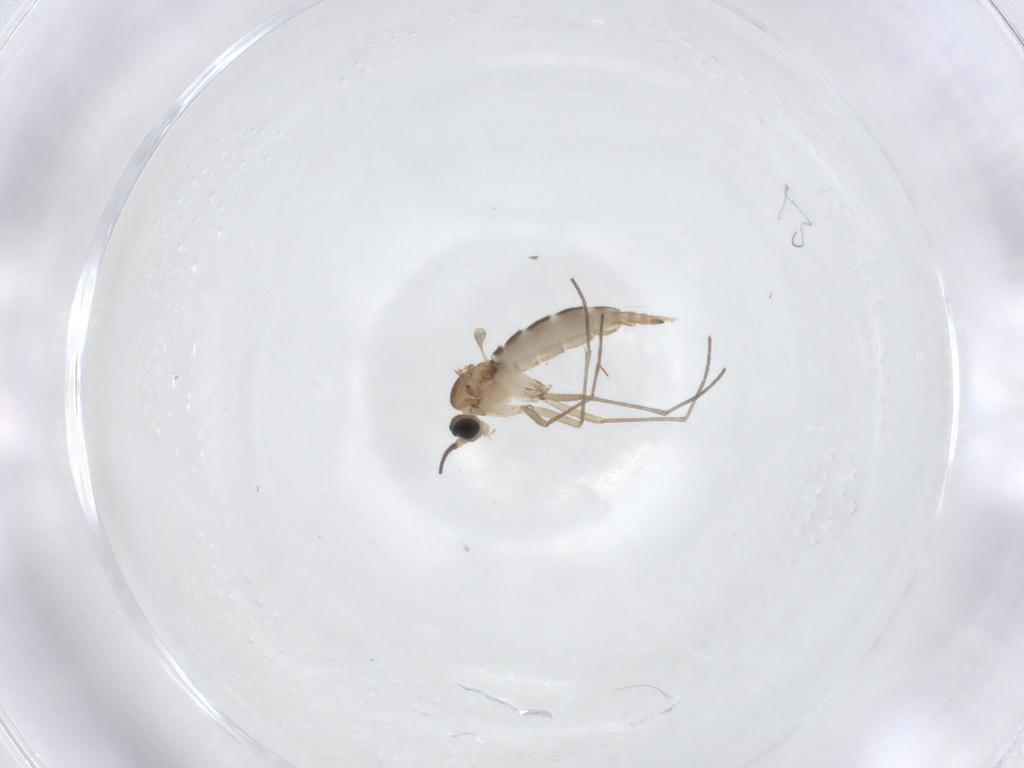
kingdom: Animalia
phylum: Arthropoda
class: Insecta
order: Diptera
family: Sciaridae
